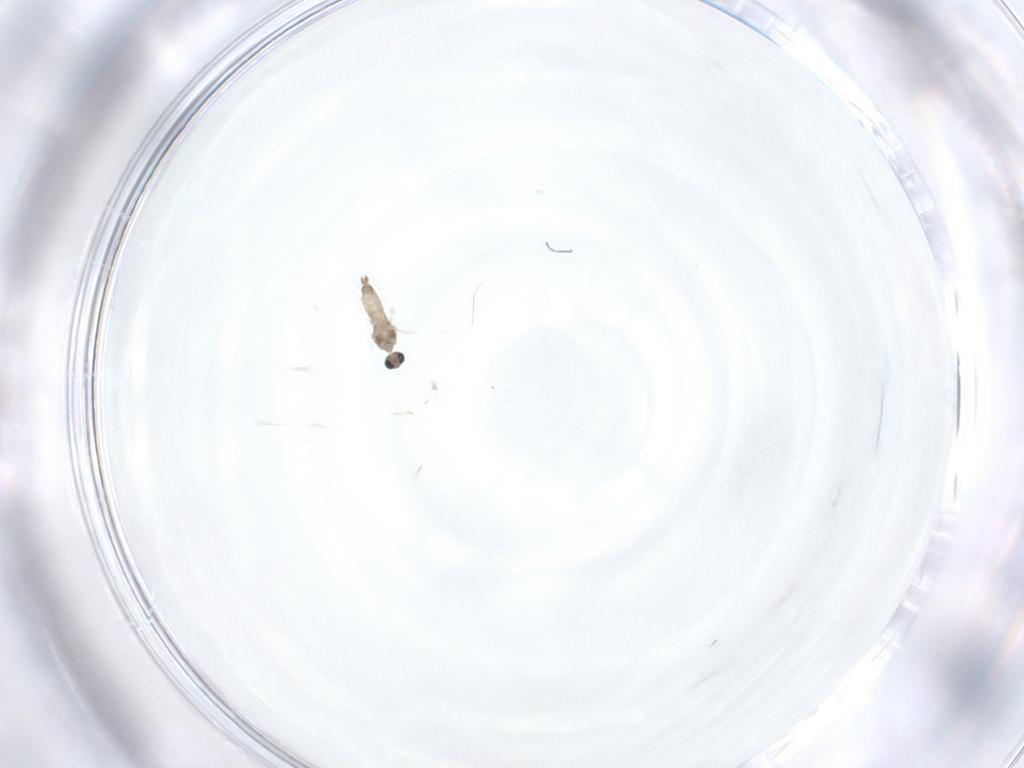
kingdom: Animalia
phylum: Arthropoda
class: Insecta
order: Diptera
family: Cecidomyiidae
